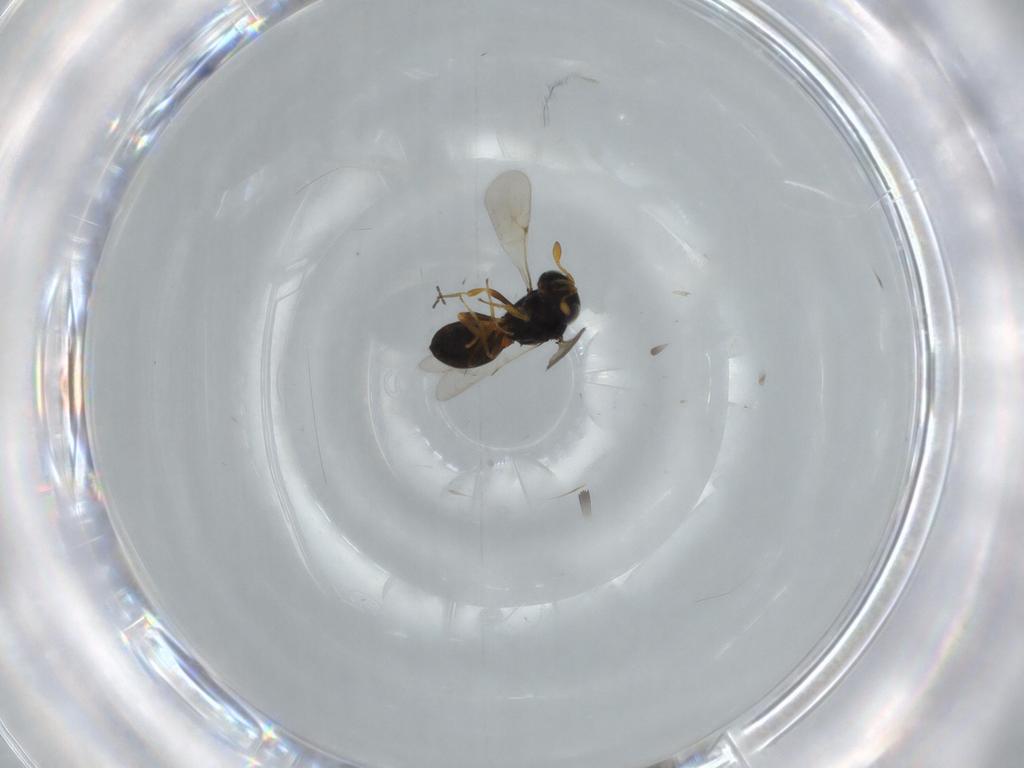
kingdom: Animalia
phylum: Arthropoda
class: Insecta
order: Hymenoptera
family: Scelionidae
